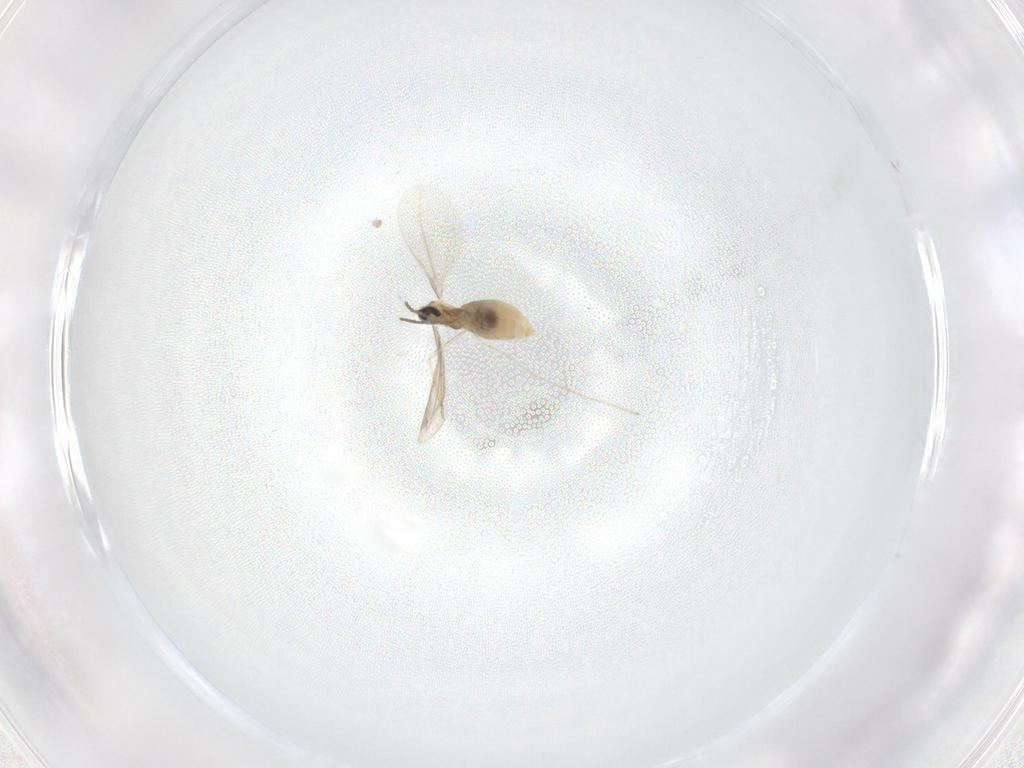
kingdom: Animalia
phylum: Arthropoda
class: Insecta
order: Diptera
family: Cecidomyiidae
